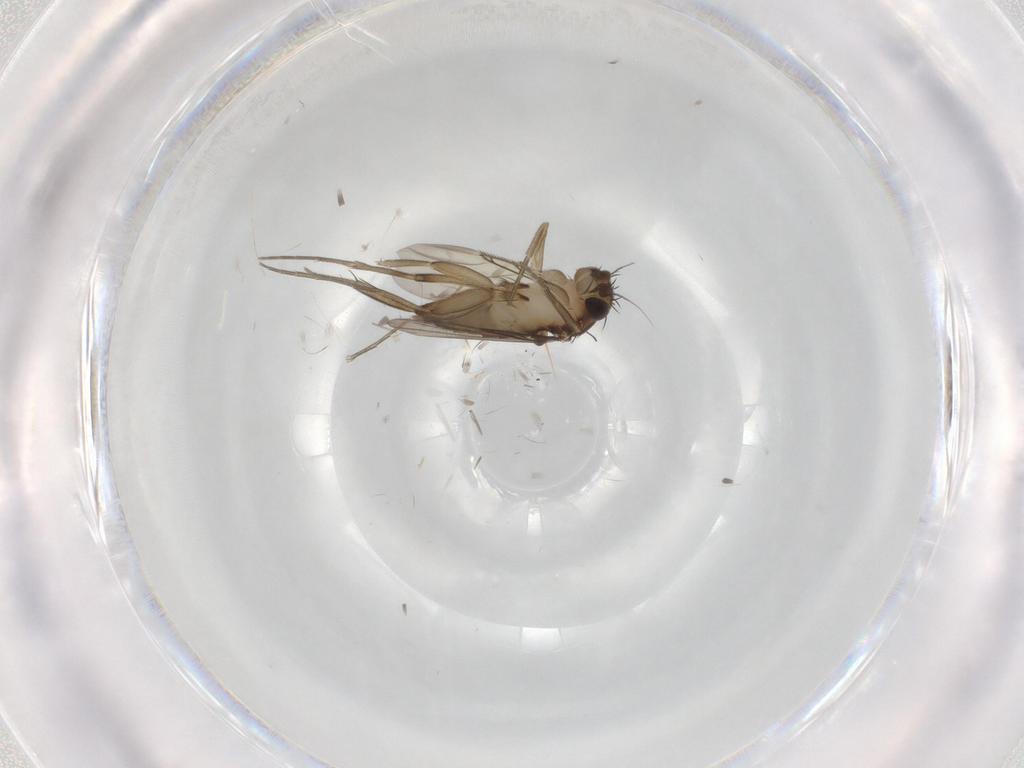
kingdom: Animalia
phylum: Arthropoda
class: Insecta
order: Diptera
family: Phoridae
